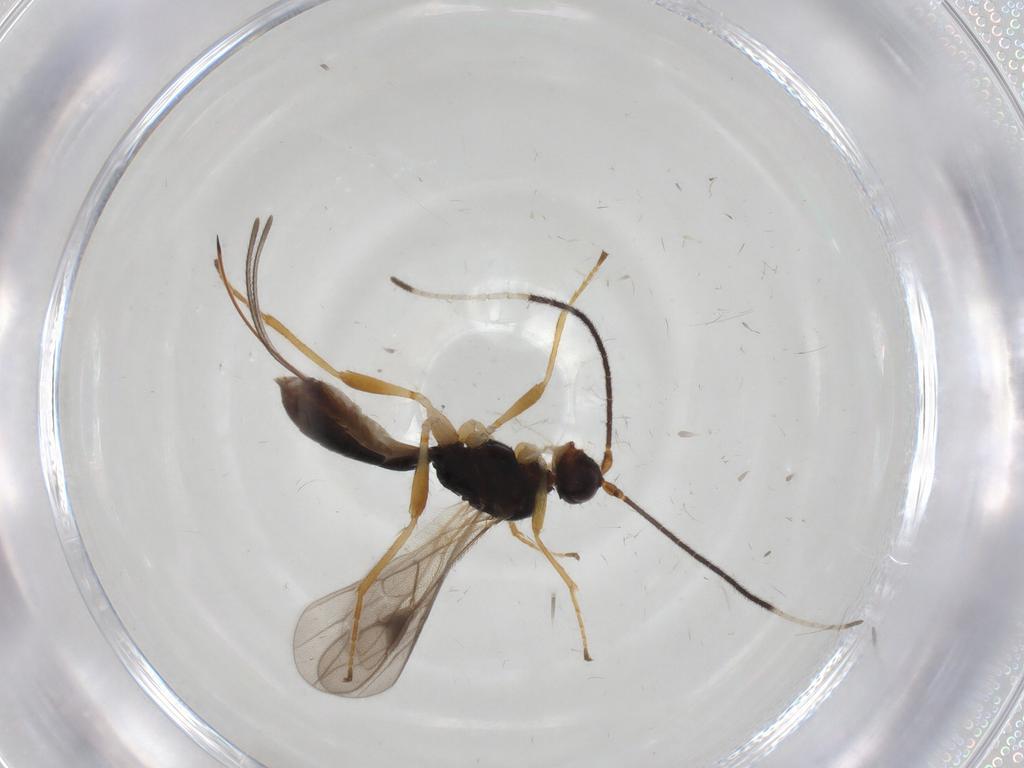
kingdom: Animalia
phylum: Arthropoda
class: Insecta
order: Hymenoptera
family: Braconidae
